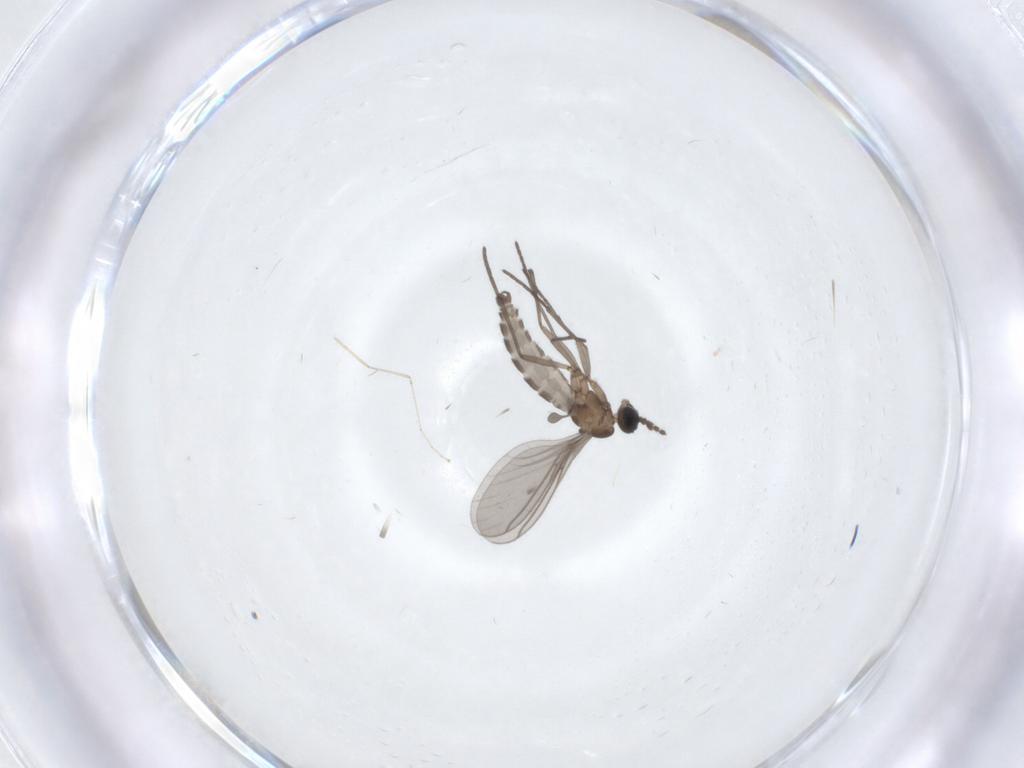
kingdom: Animalia
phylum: Arthropoda
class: Insecta
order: Diptera
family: Sciaridae
